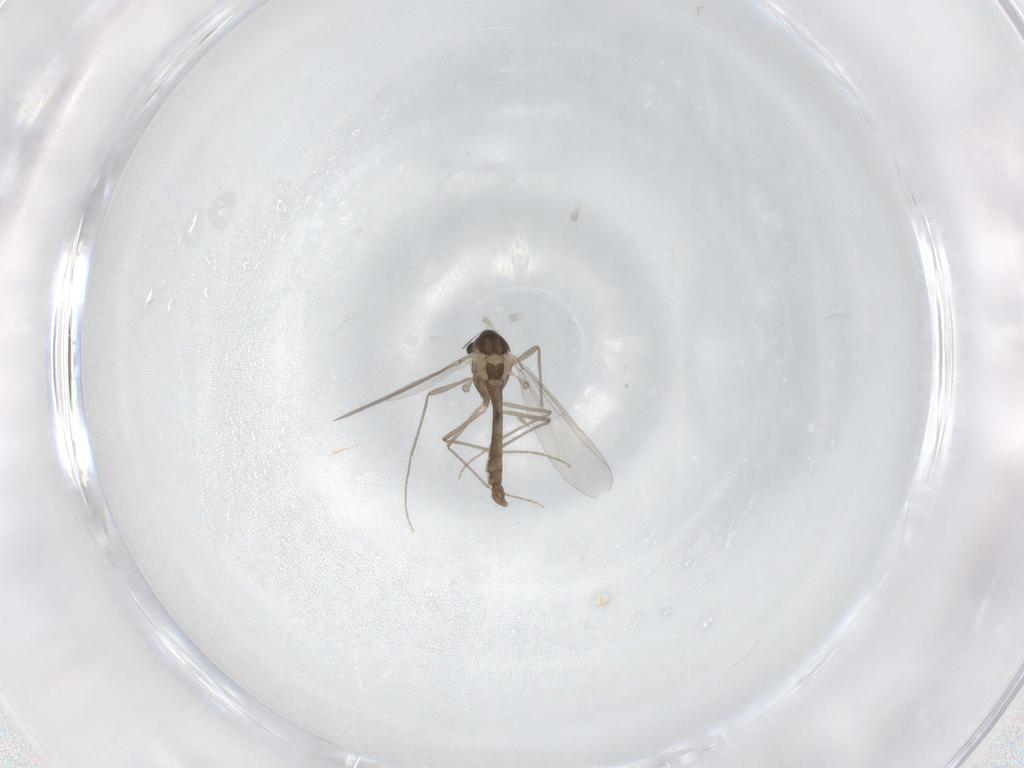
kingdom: Animalia
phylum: Arthropoda
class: Insecta
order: Diptera
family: Chironomidae
